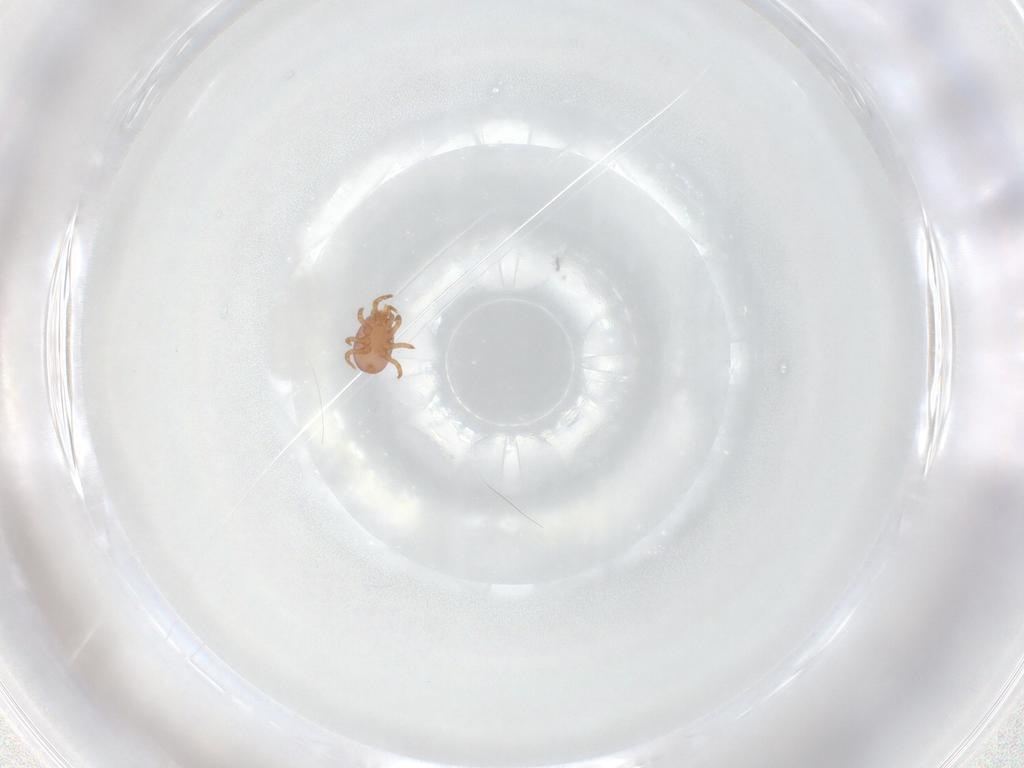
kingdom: Animalia
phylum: Arthropoda
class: Arachnida
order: Mesostigmata
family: Eviphididae
